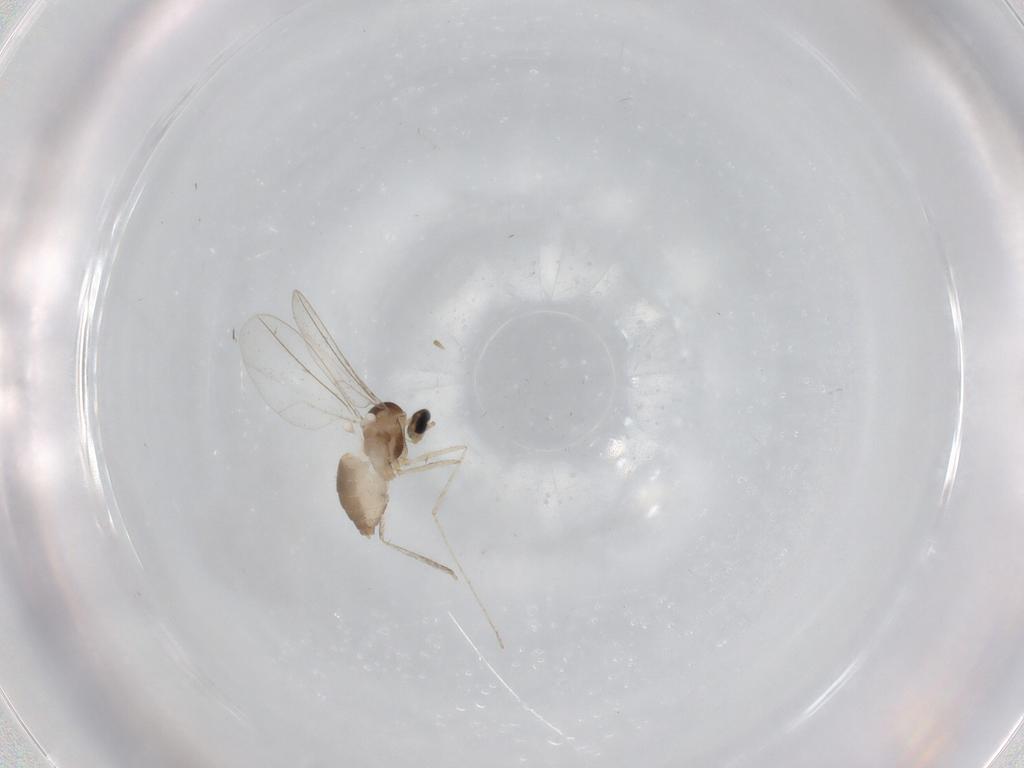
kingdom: Animalia
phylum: Arthropoda
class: Insecta
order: Diptera
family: Cecidomyiidae
